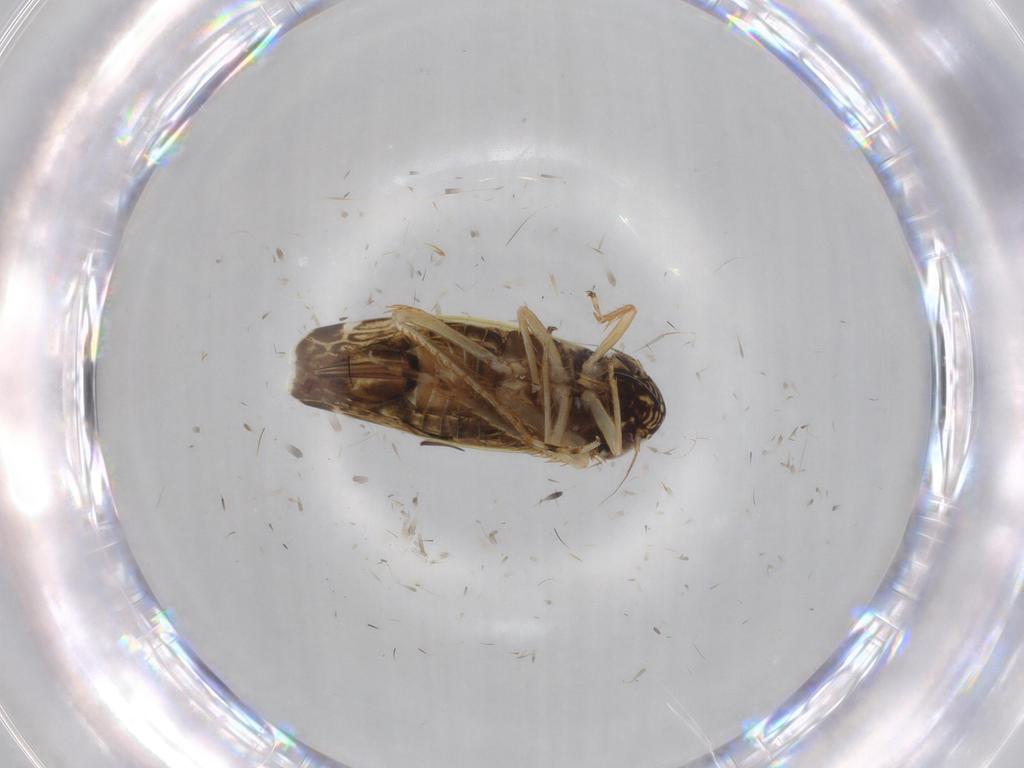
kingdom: Animalia
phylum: Arthropoda
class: Insecta
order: Hemiptera
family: Cicadellidae
